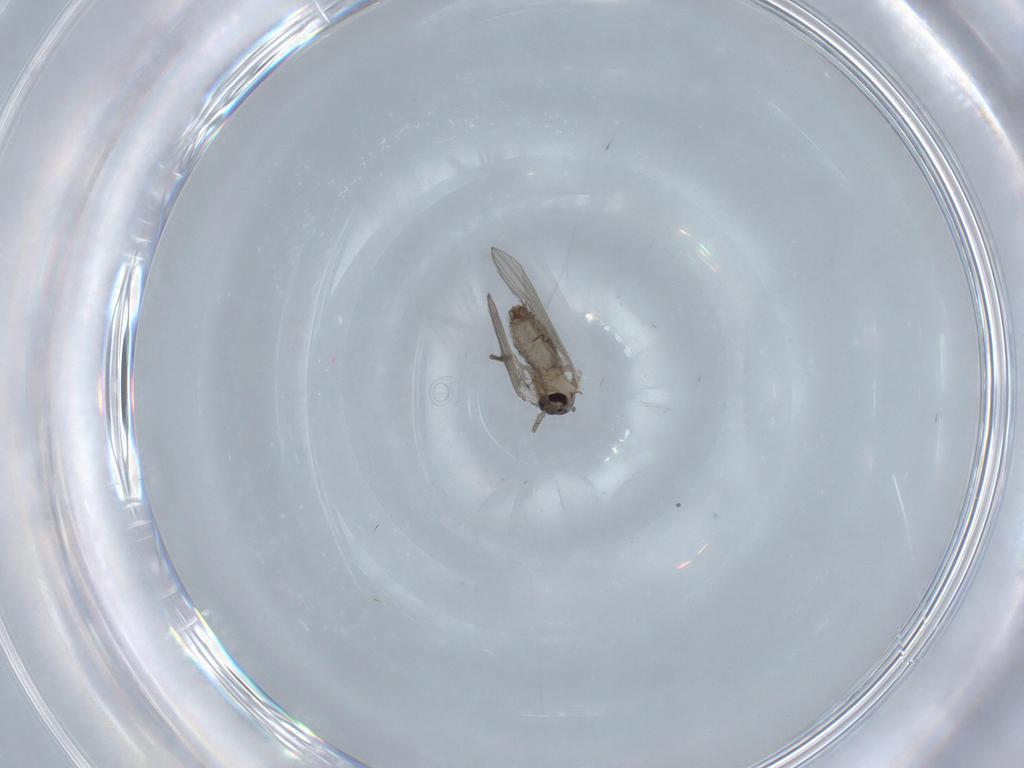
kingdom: Animalia
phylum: Arthropoda
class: Insecta
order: Diptera
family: Psychodidae
